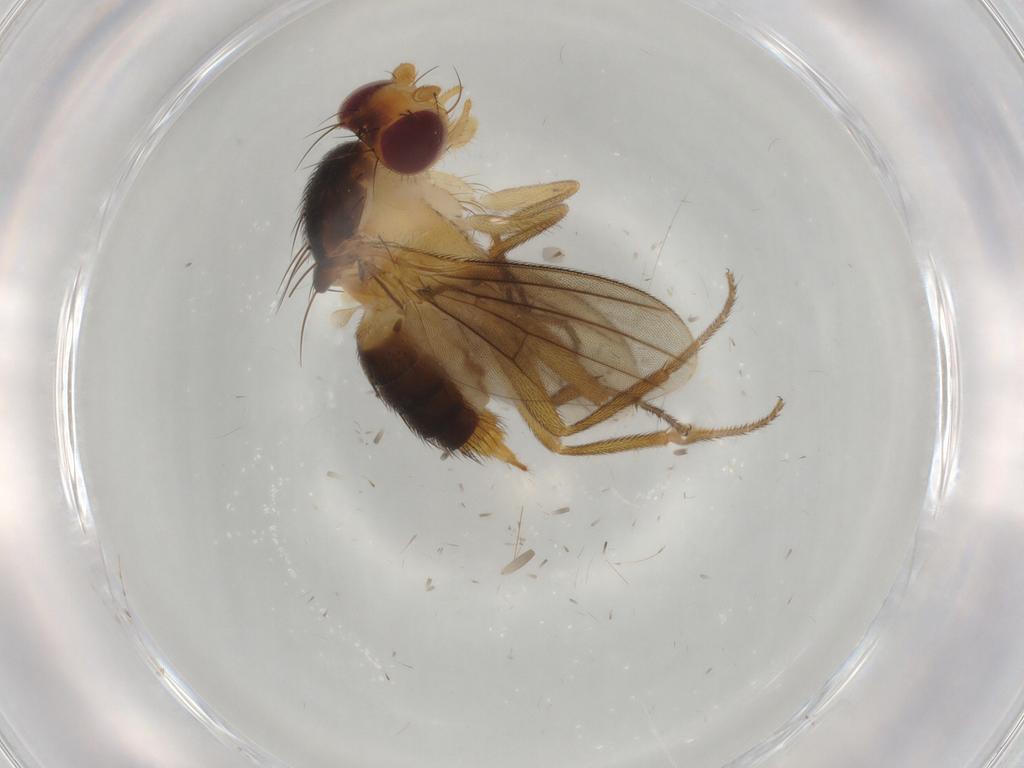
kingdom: Animalia
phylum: Arthropoda
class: Insecta
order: Diptera
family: Clusiidae
